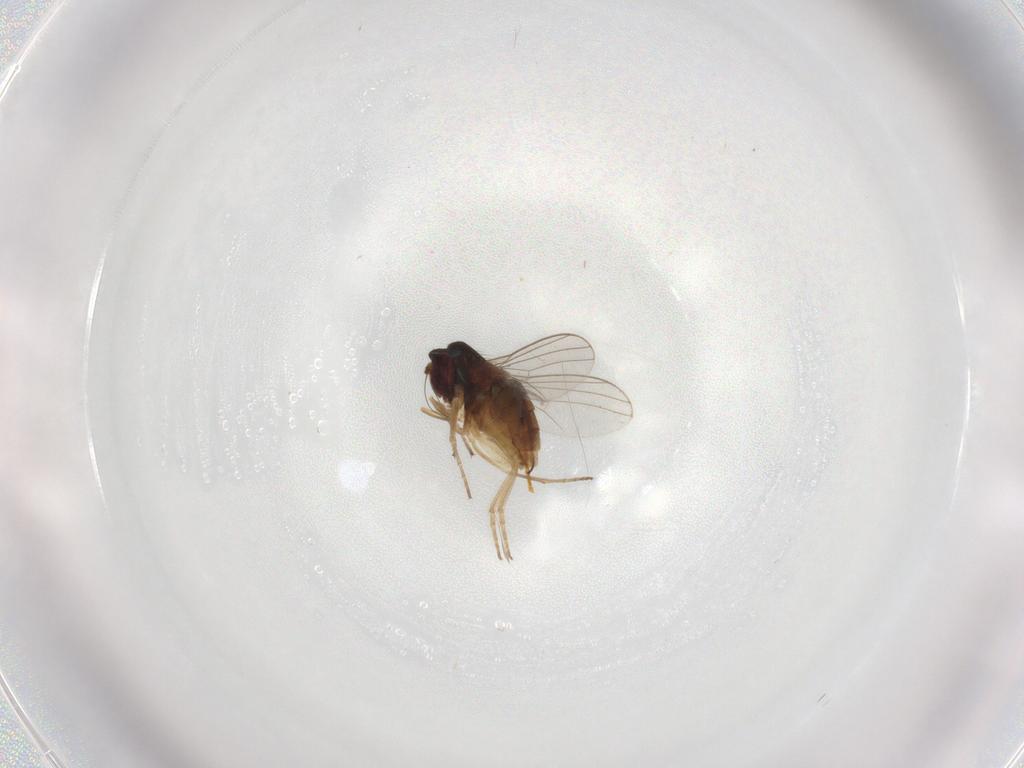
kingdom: Animalia
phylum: Arthropoda
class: Insecta
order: Diptera
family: Dolichopodidae
